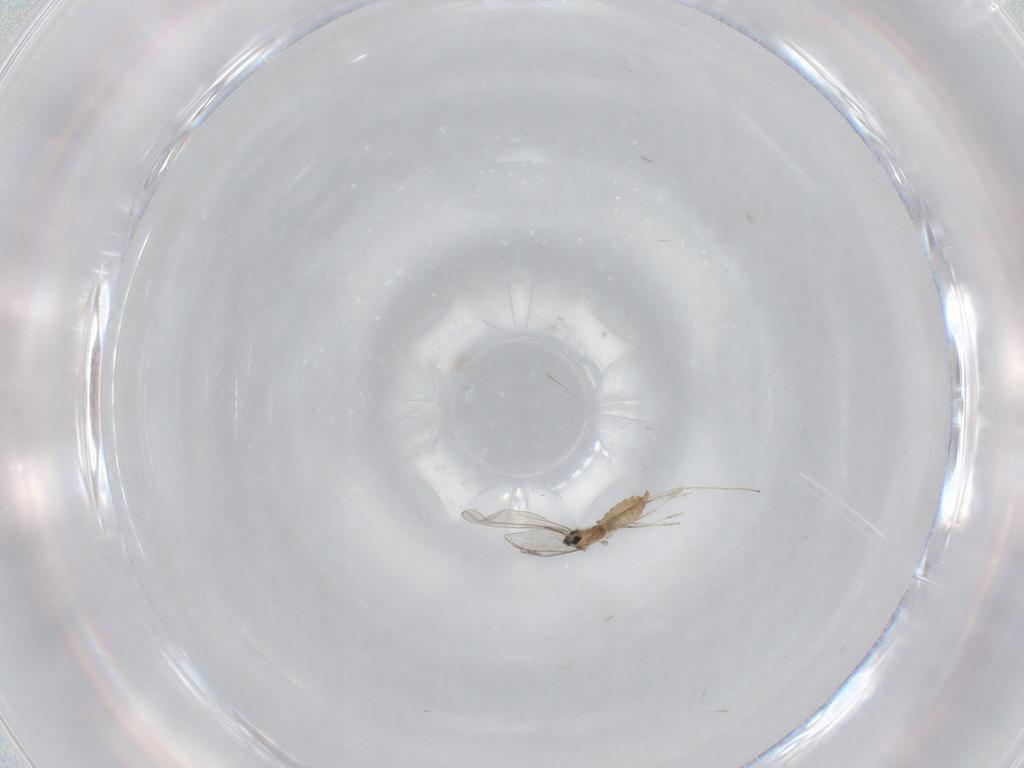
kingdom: Animalia
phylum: Arthropoda
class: Insecta
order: Diptera
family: Cecidomyiidae
